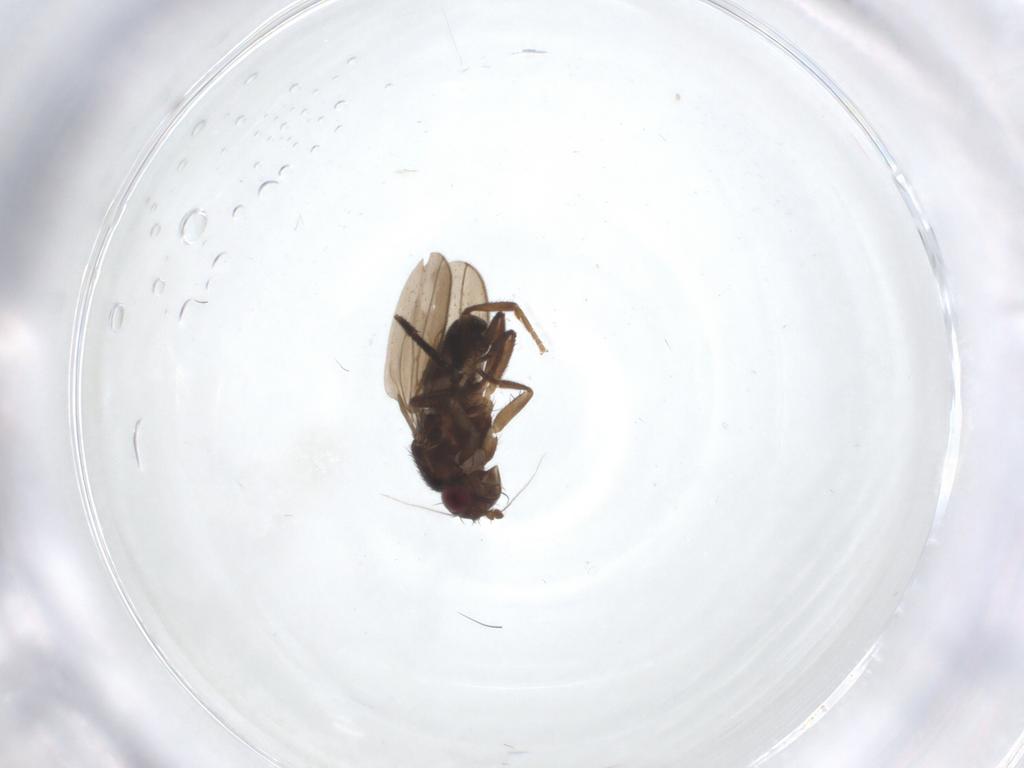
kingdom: Animalia
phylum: Arthropoda
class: Insecta
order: Diptera
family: Sphaeroceridae
